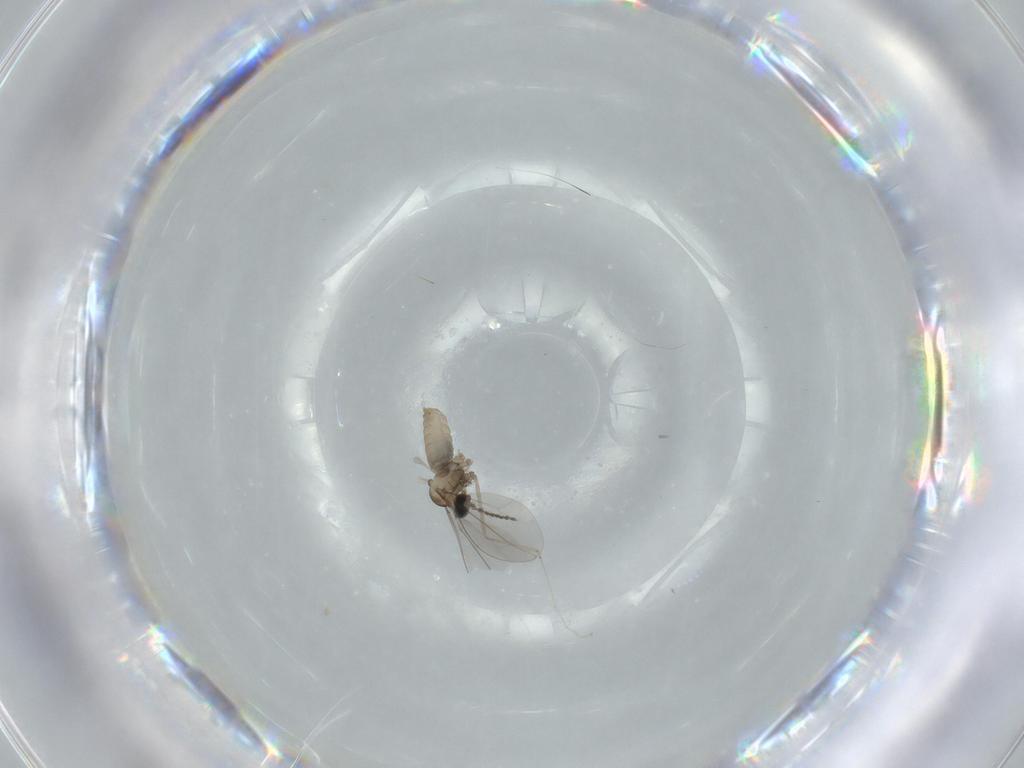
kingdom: Animalia
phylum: Arthropoda
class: Insecta
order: Diptera
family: Cecidomyiidae
